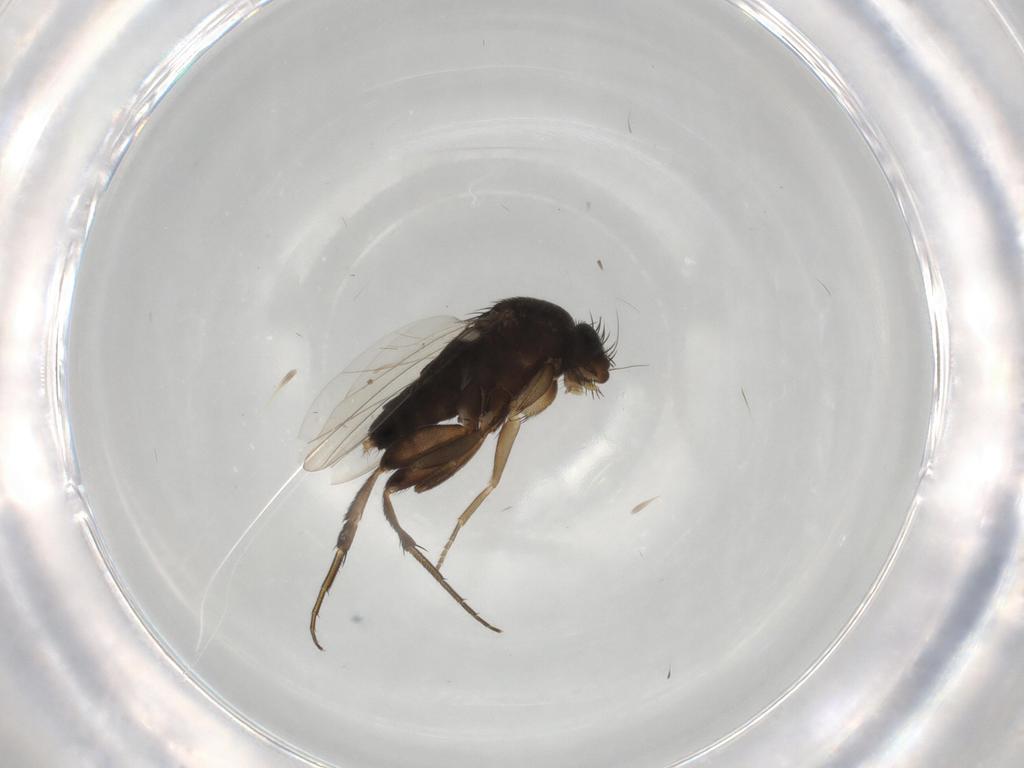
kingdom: Animalia
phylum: Arthropoda
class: Insecta
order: Diptera
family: Phoridae
